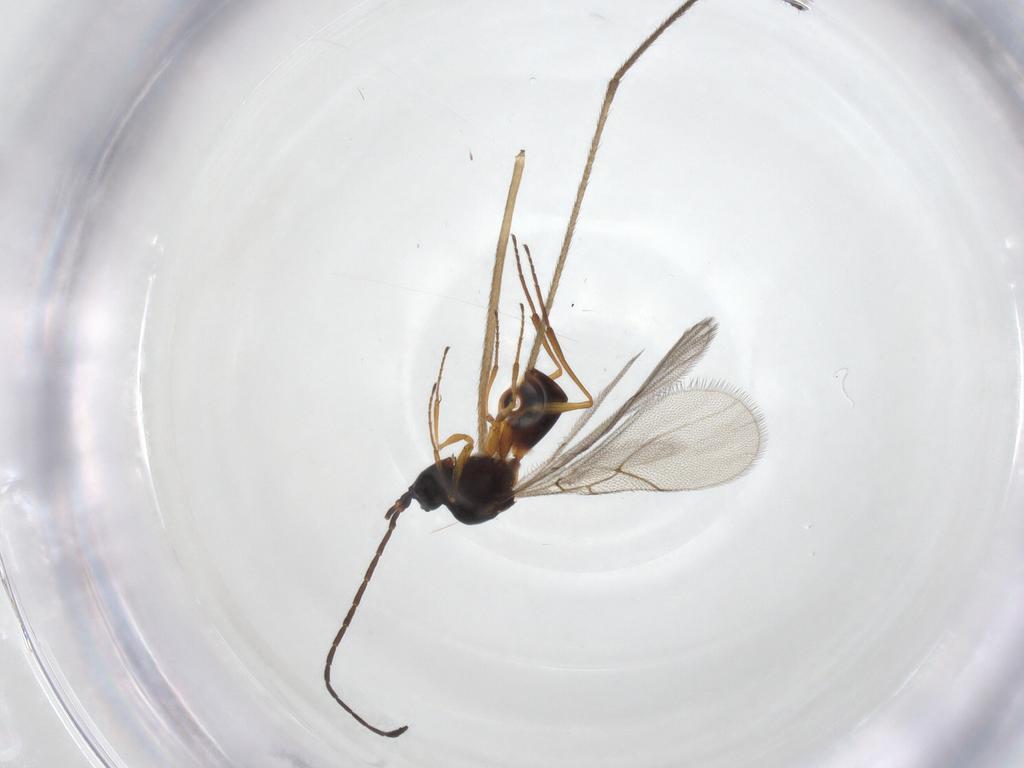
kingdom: Animalia
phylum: Arthropoda
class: Insecta
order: Hymenoptera
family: Figitidae
